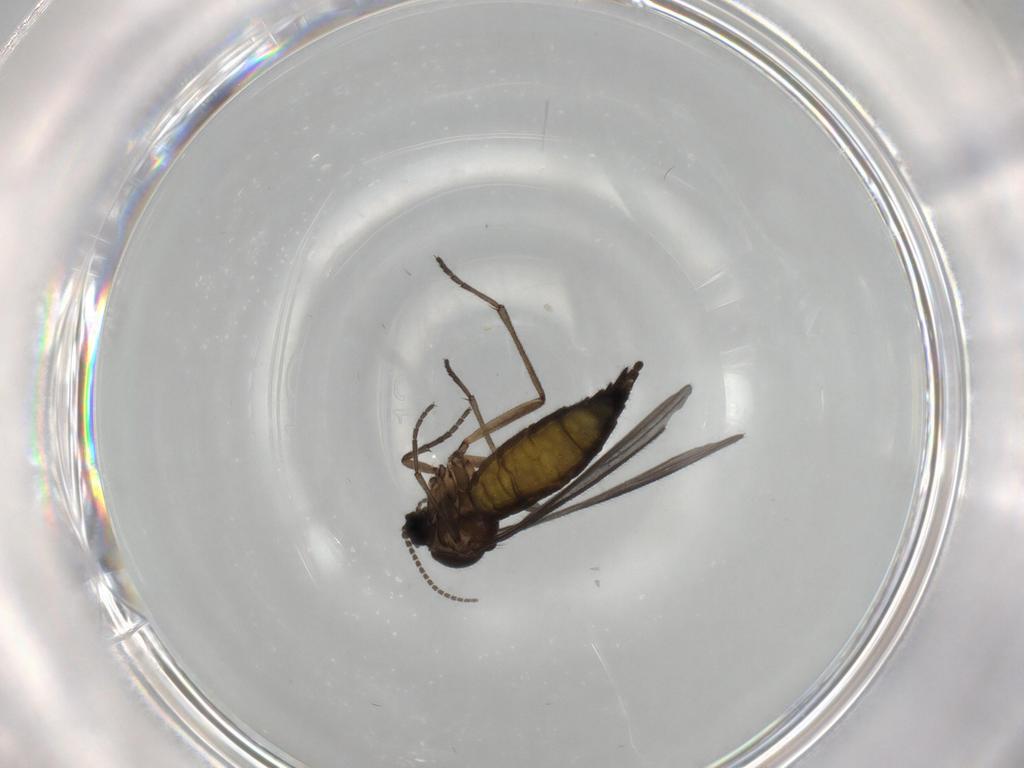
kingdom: Animalia
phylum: Arthropoda
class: Insecta
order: Diptera
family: Sciaridae
